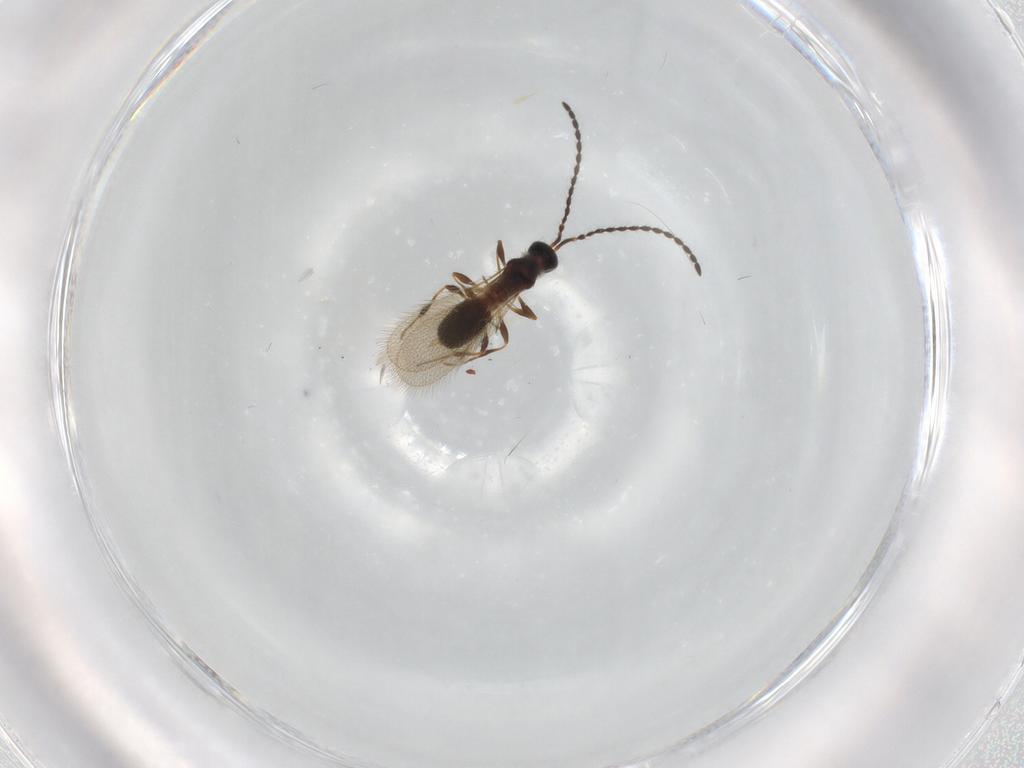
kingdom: Animalia
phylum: Arthropoda
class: Insecta
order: Hymenoptera
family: Diapriidae
